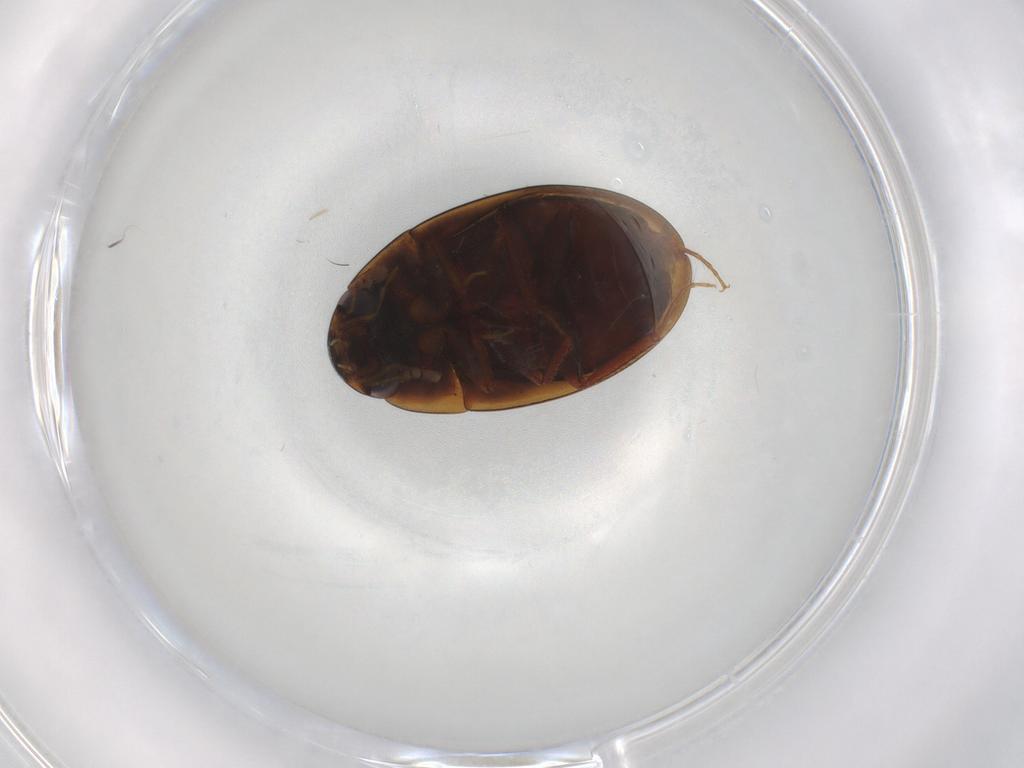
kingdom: Animalia
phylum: Arthropoda
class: Insecta
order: Coleoptera
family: Hydrophilidae
